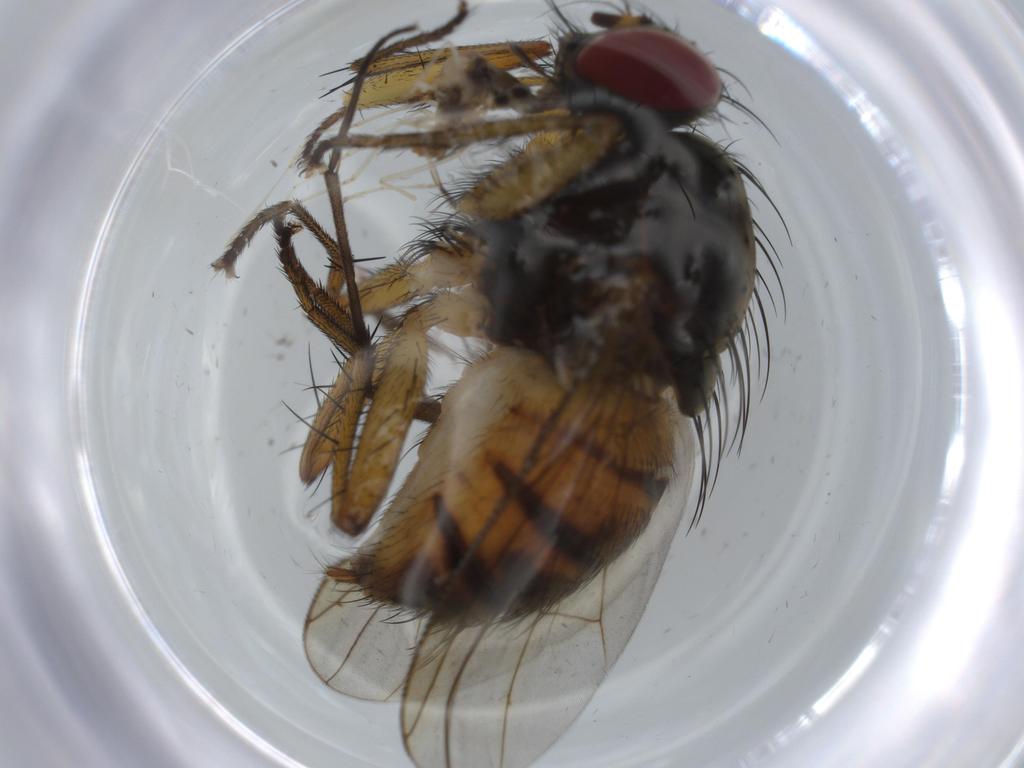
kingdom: Animalia
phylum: Arthropoda
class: Insecta
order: Diptera
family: Muscidae
